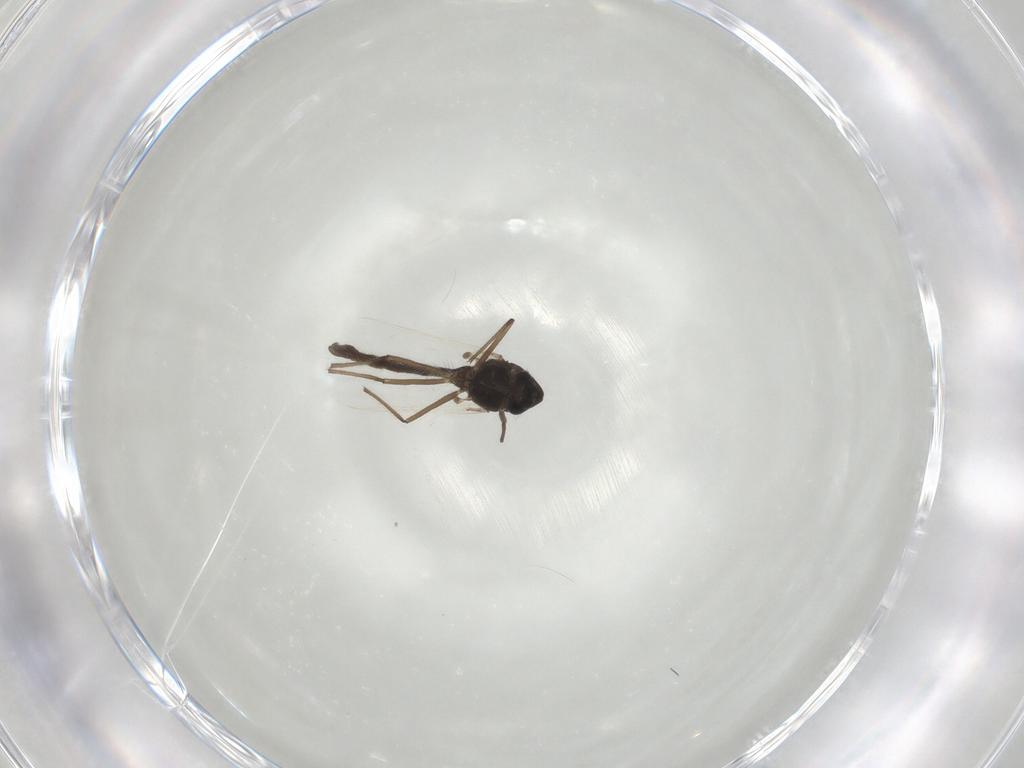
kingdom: Animalia
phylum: Arthropoda
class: Insecta
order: Diptera
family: Chironomidae
